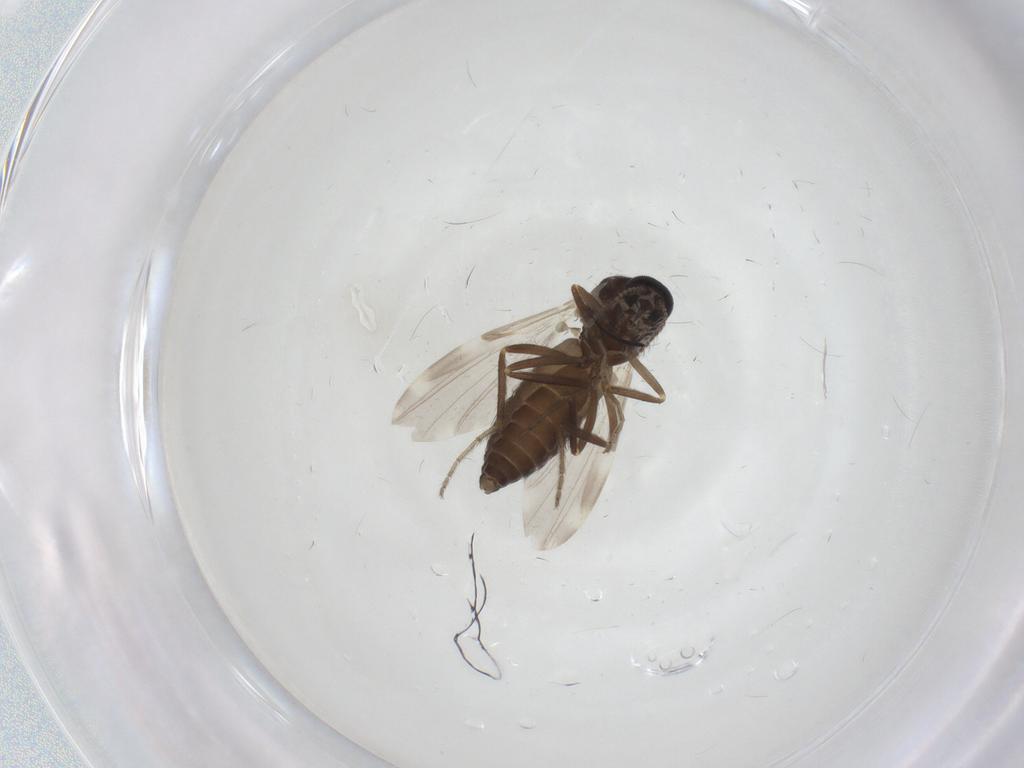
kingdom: Animalia
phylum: Arthropoda
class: Insecta
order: Diptera
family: Ceratopogonidae
